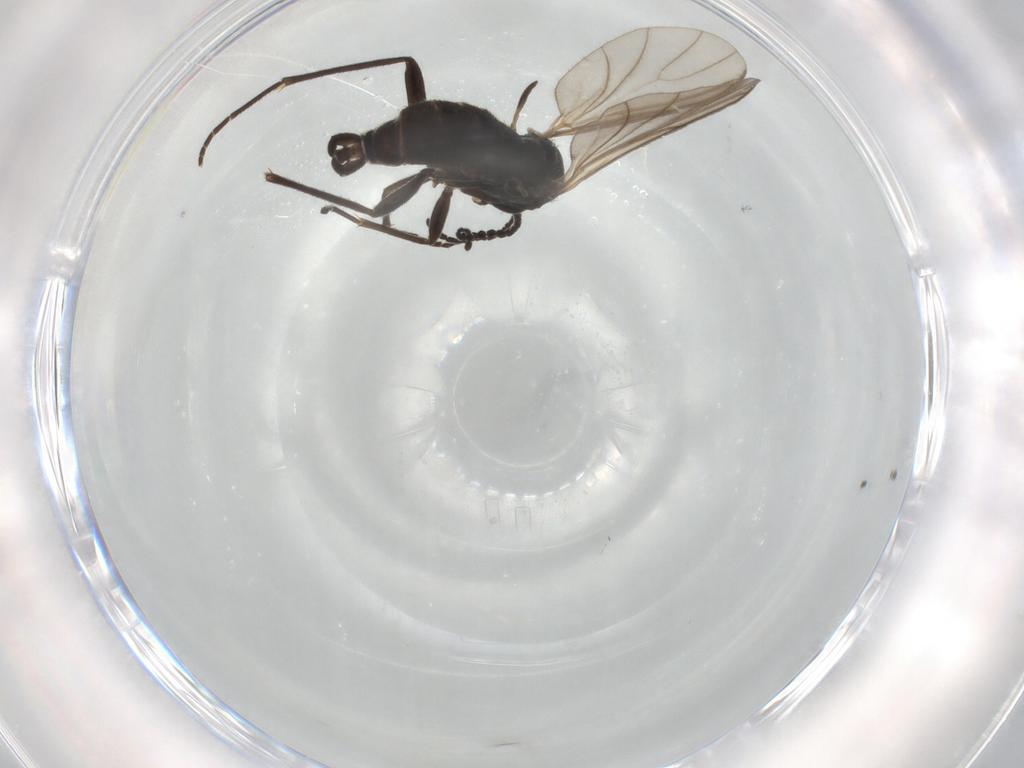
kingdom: Animalia
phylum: Arthropoda
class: Insecta
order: Diptera
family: Sciaridae
